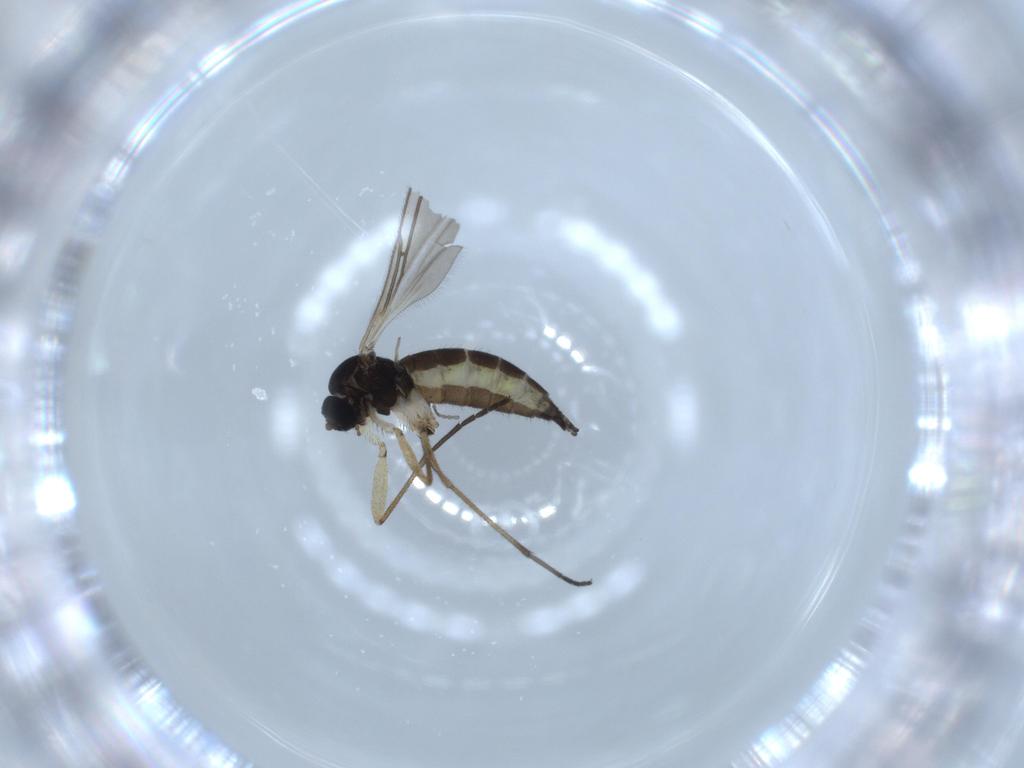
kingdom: Animalia
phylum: Arthropoda
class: Insecta
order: Diptera
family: Sciaridae
